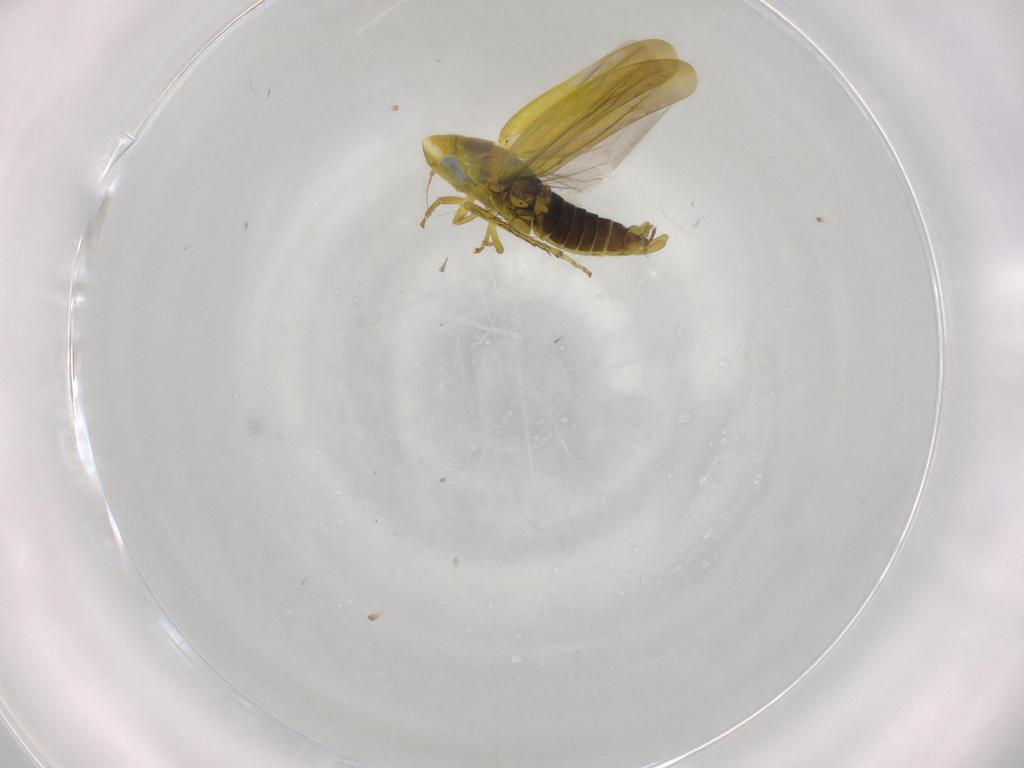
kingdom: Animalia
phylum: Arthropoda
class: Insecta
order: Hemiptera
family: Cicadellidae
